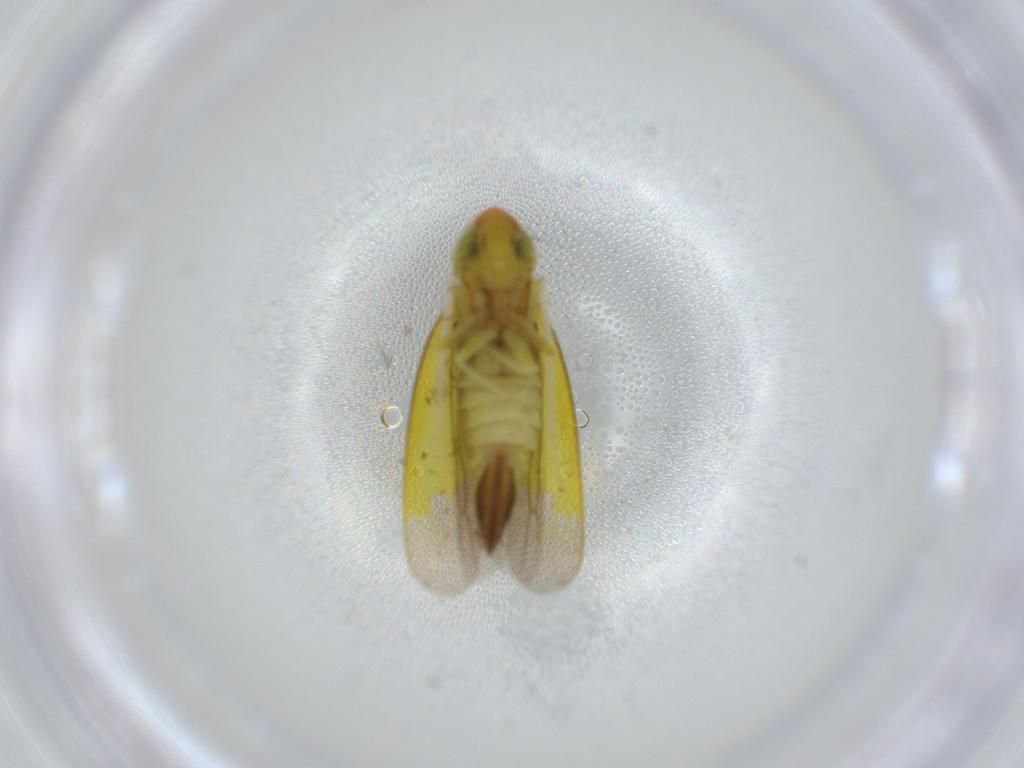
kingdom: Animalia
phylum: Arthropoda
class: Insecta
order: Hemiptera
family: Cicadellidae
